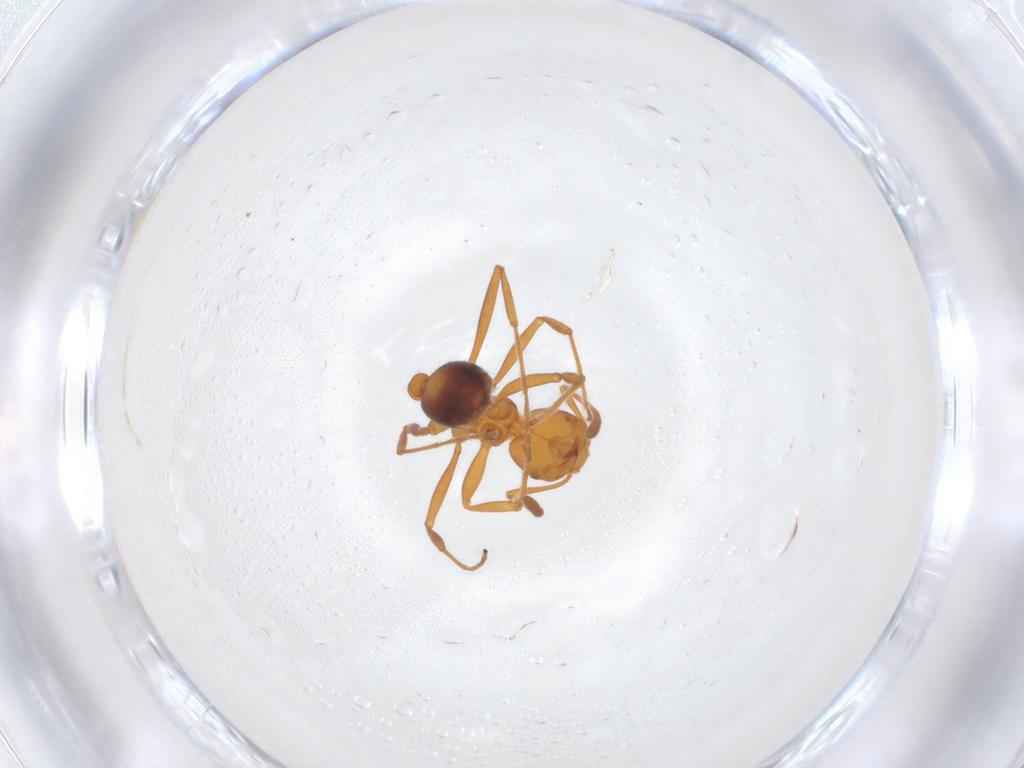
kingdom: Animalia
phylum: Arthropoda
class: Insecta
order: Hymenoptera
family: Formicidae
